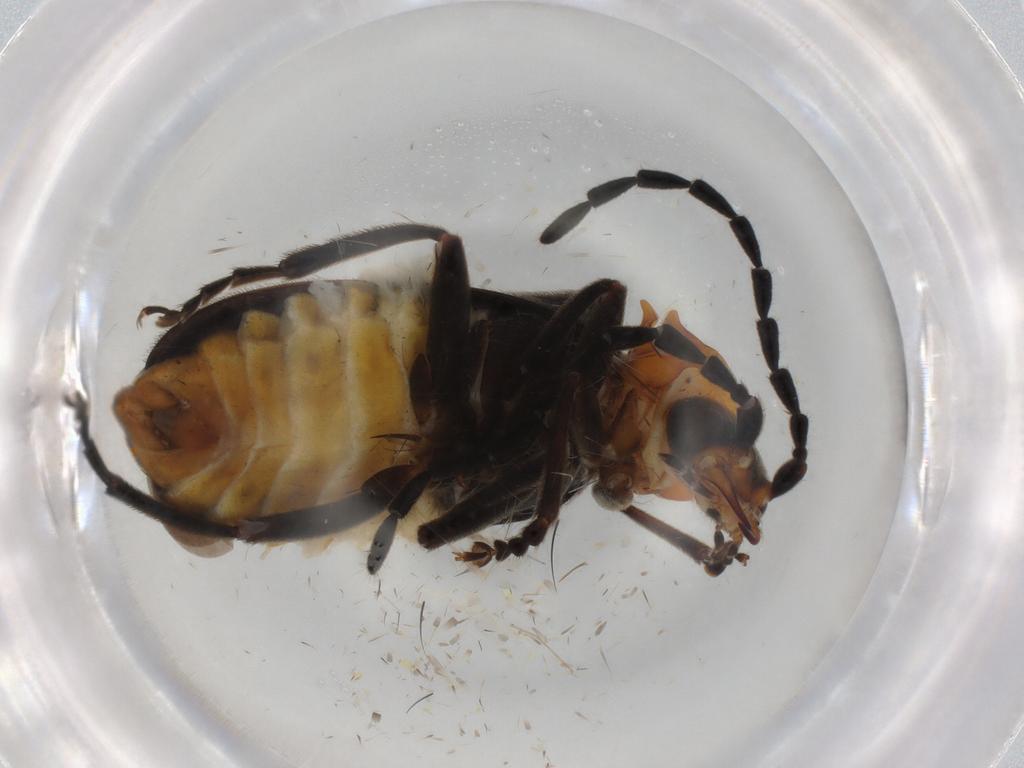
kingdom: Animalia
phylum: Arthropoda
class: Insecta
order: Coleoptera
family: Cantharidae
